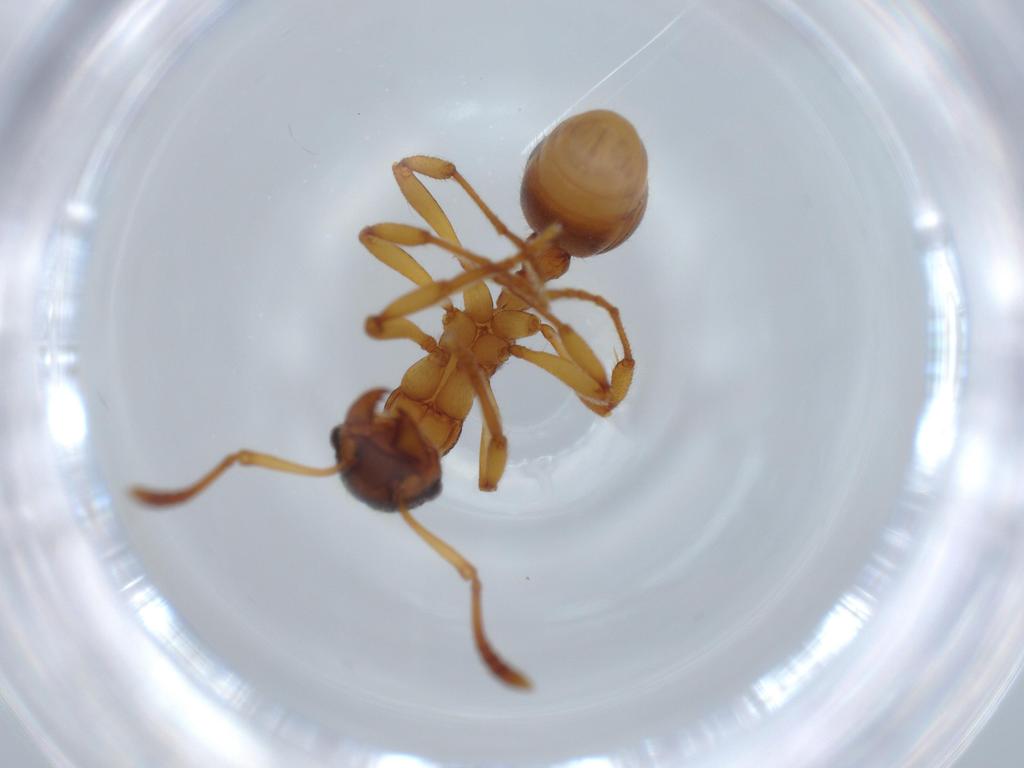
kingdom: Animalia
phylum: Arthropoda
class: Insecta
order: Hymenoptera
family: Formicidae
